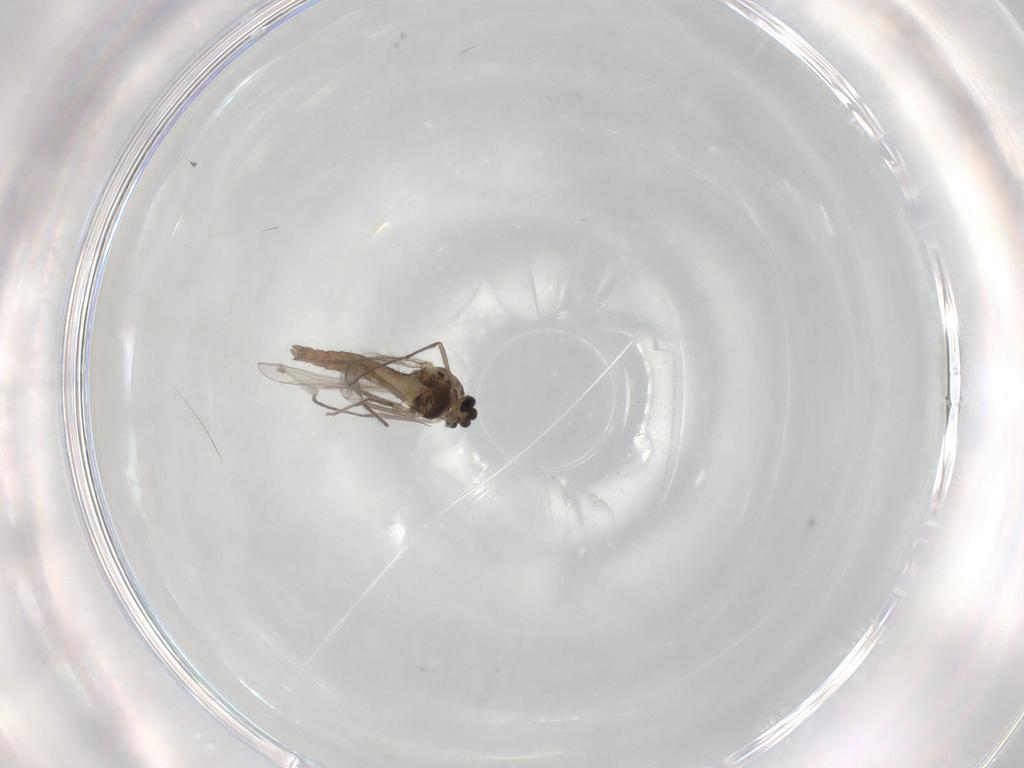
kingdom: Animalia
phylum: Arthropoda
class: Insecta
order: Diptera
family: Chironomidae
